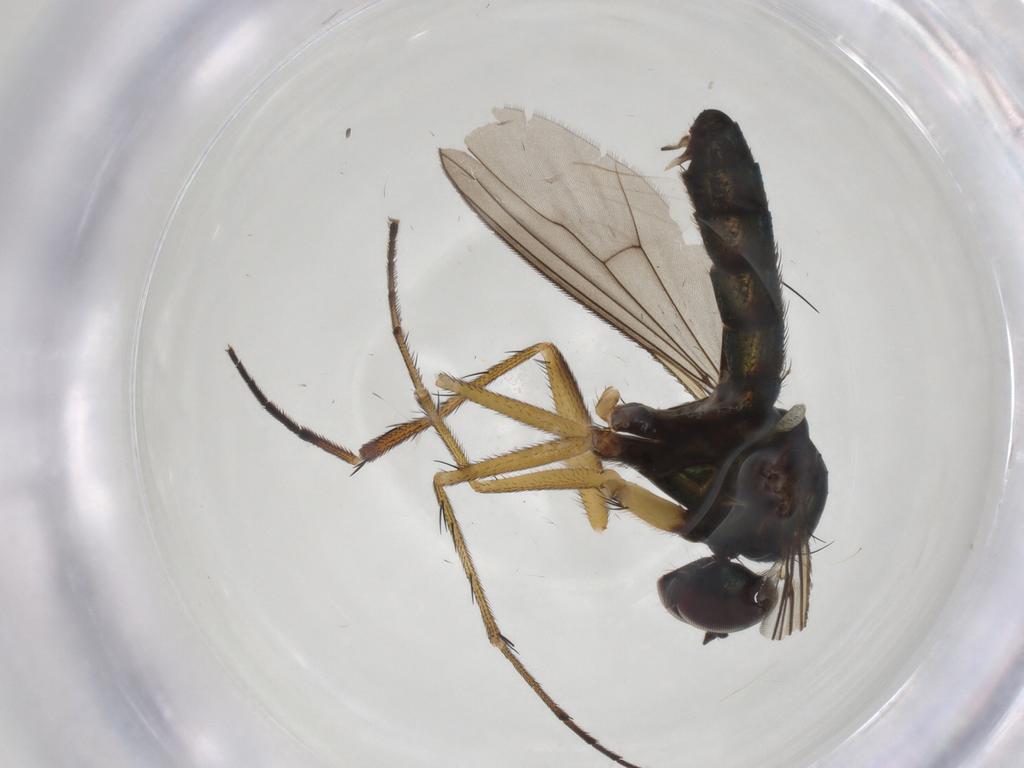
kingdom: Animalia
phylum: Arthropoda
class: Insecta
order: Diptera
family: Dolichopodidae
